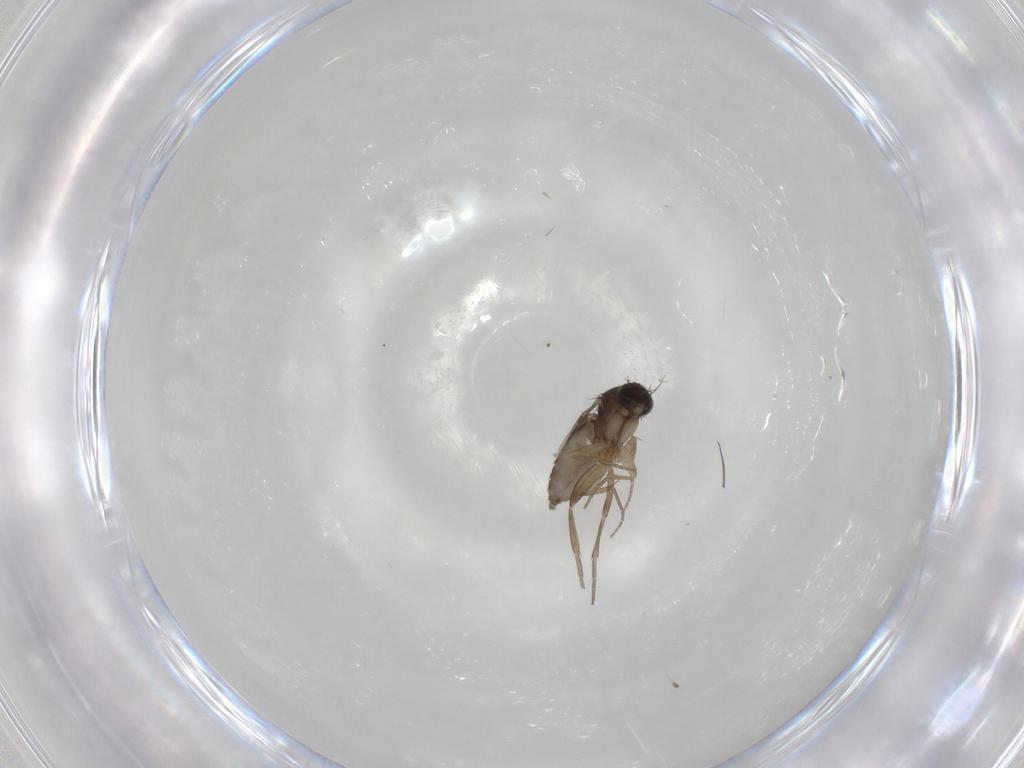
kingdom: Animalia
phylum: Arthropoda
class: Insecta
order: Diptera
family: Phoridae
